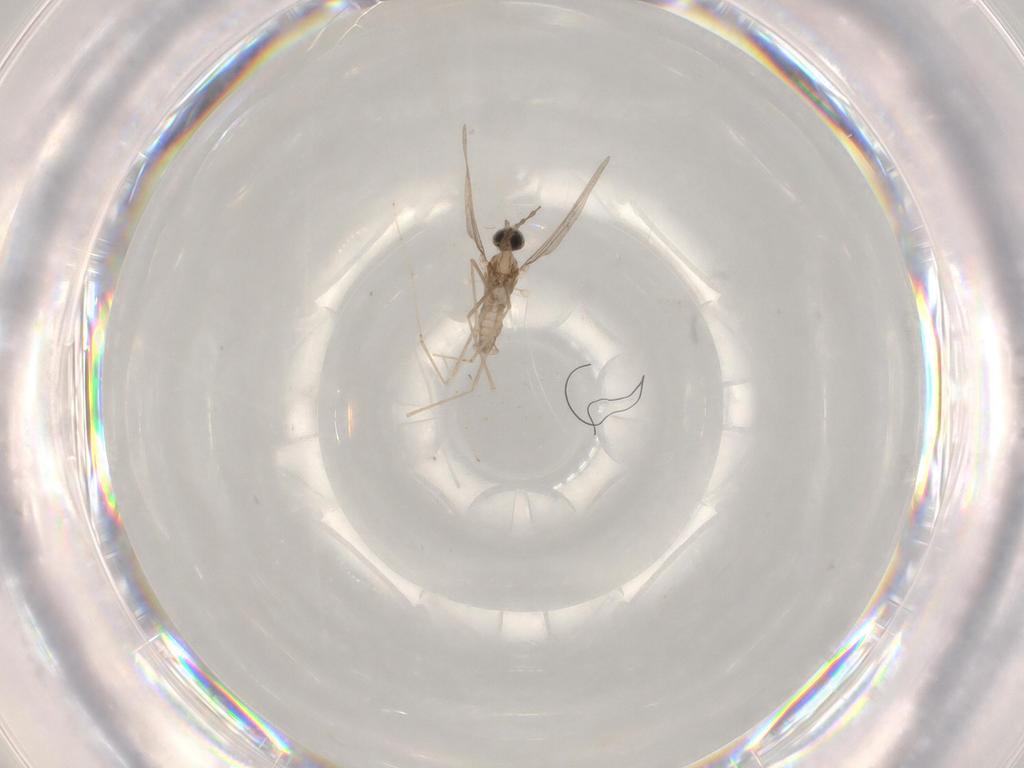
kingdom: Animalia
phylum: Arthropoda
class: Insecta
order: Diptera
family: Cecidomyiidae
